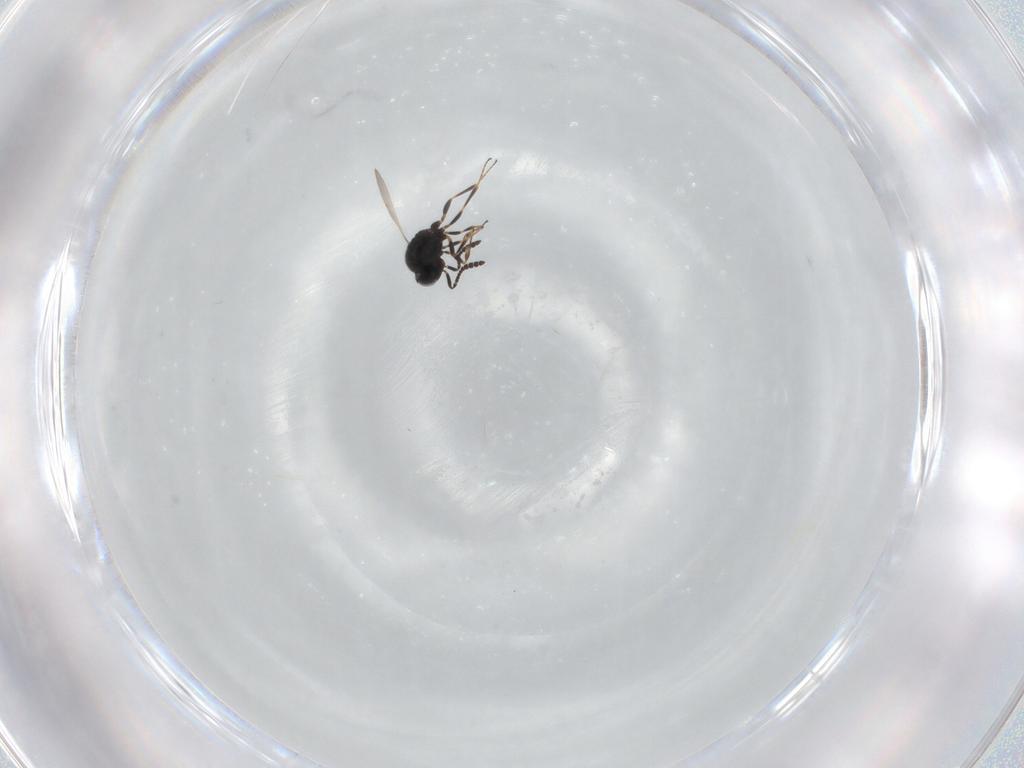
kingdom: Animalia
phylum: Arthropoda
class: Insecta
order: Hymenoptera
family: Scelionidae
